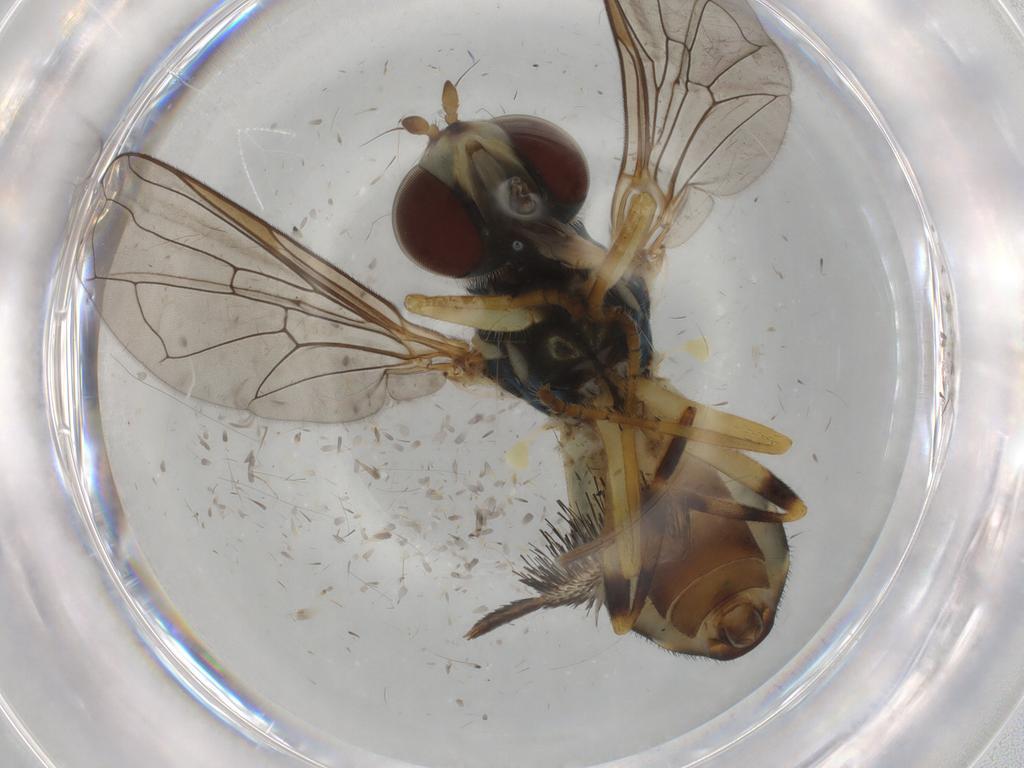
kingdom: Animalia
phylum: Arthropoda
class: Insecta
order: Diptera
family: Syrphidae
